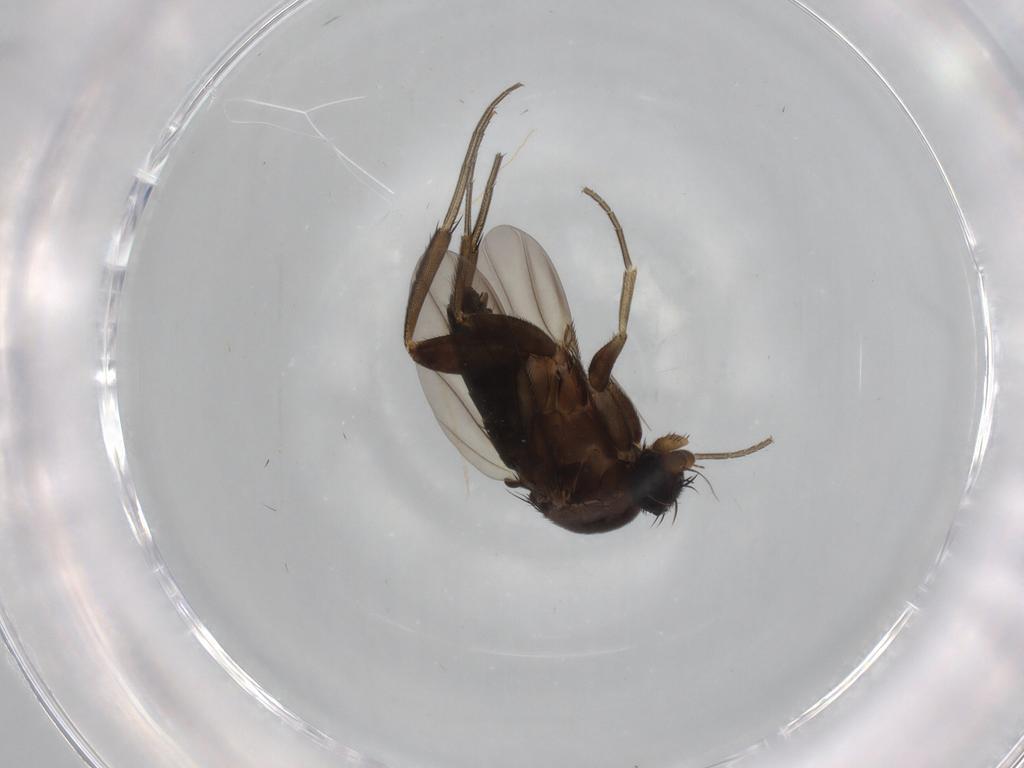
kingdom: Animalia
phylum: Arthropoda
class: Insecta
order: Diptera
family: Phoridae
